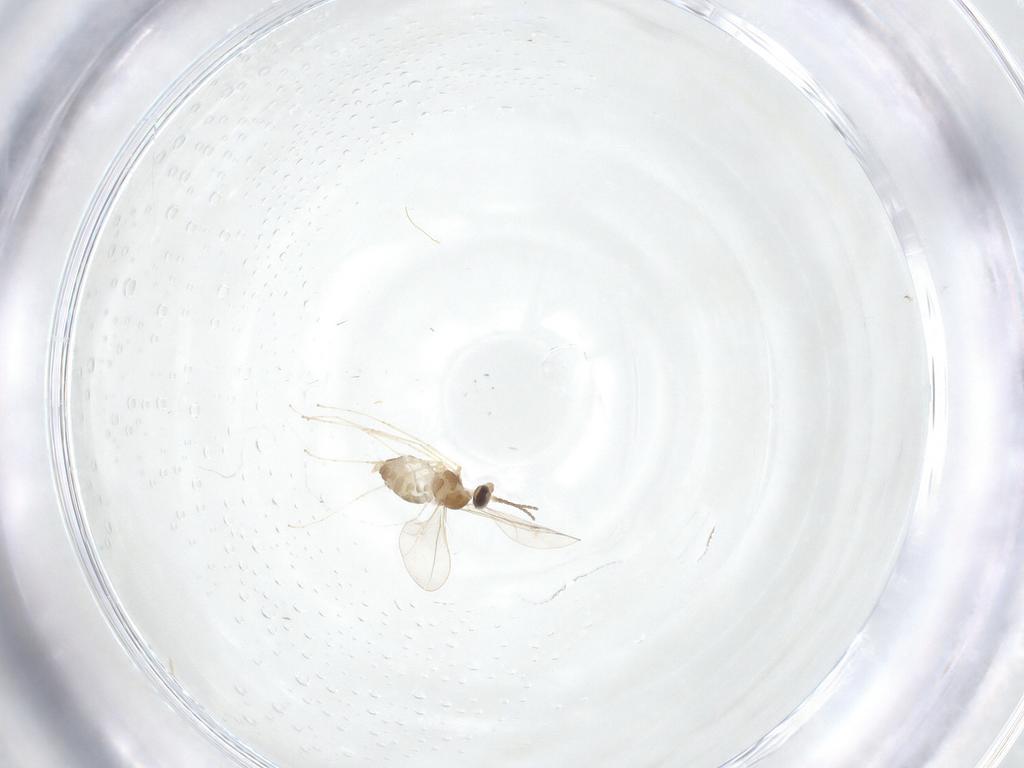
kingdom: Animalia
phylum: Arthropoda
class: Insecta
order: Diptera
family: Cecidomyiidae
